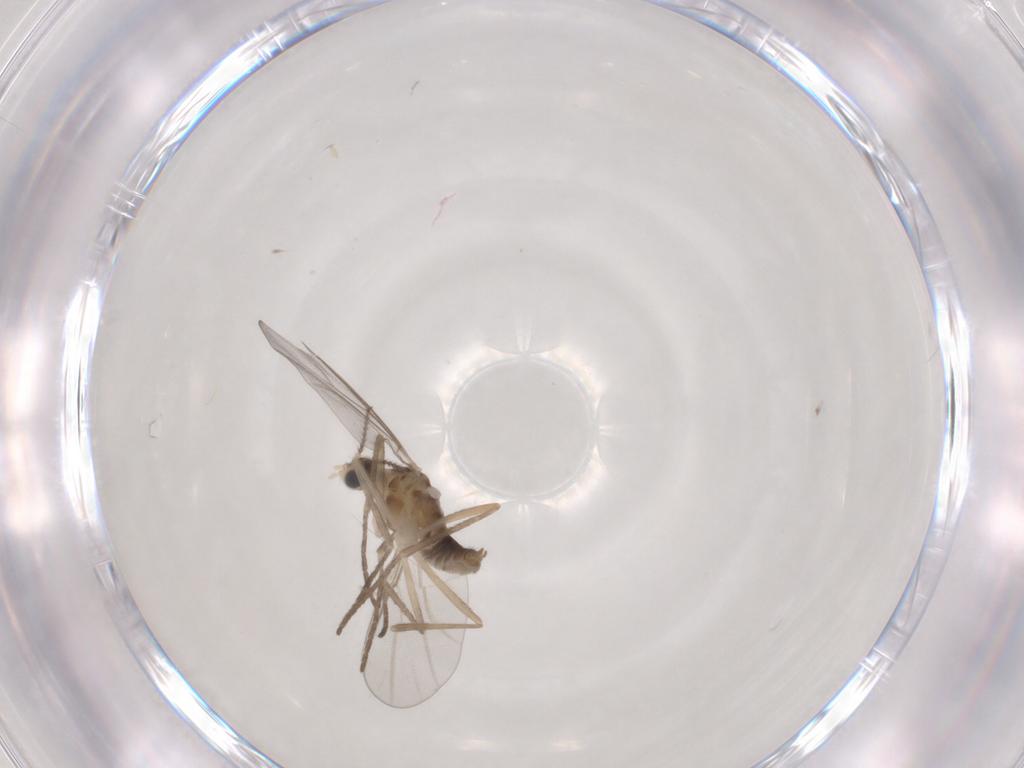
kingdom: Animalia
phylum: Arthropoda
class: Insecta
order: Diptera
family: Cecidomyiidae
